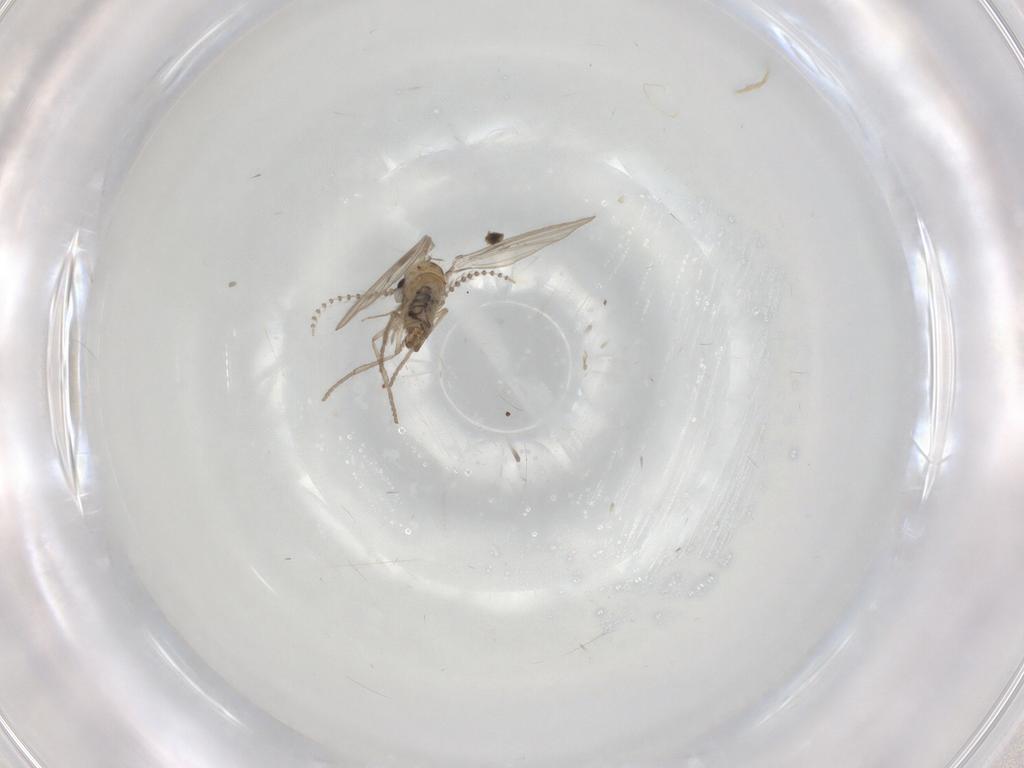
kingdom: Animalia
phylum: Arthropoda
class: Insecta
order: Diptera
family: Psychodidae
